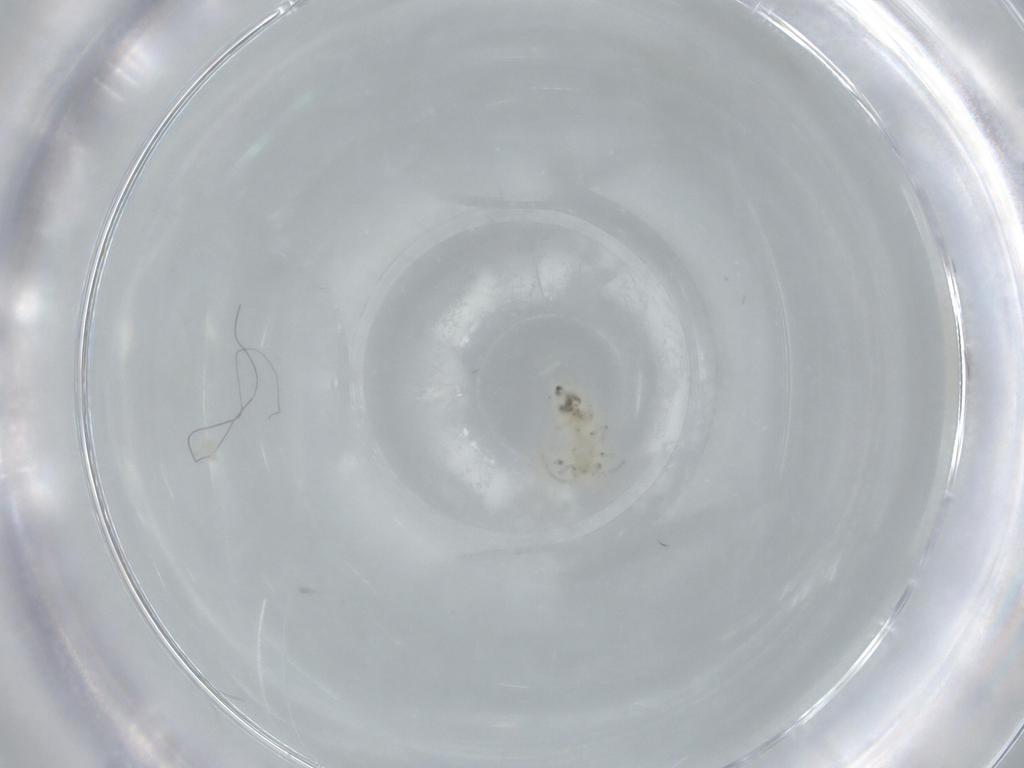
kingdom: Animalia
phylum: Arthropoda
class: Insecta
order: Psocodea
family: Caeciliusidae
